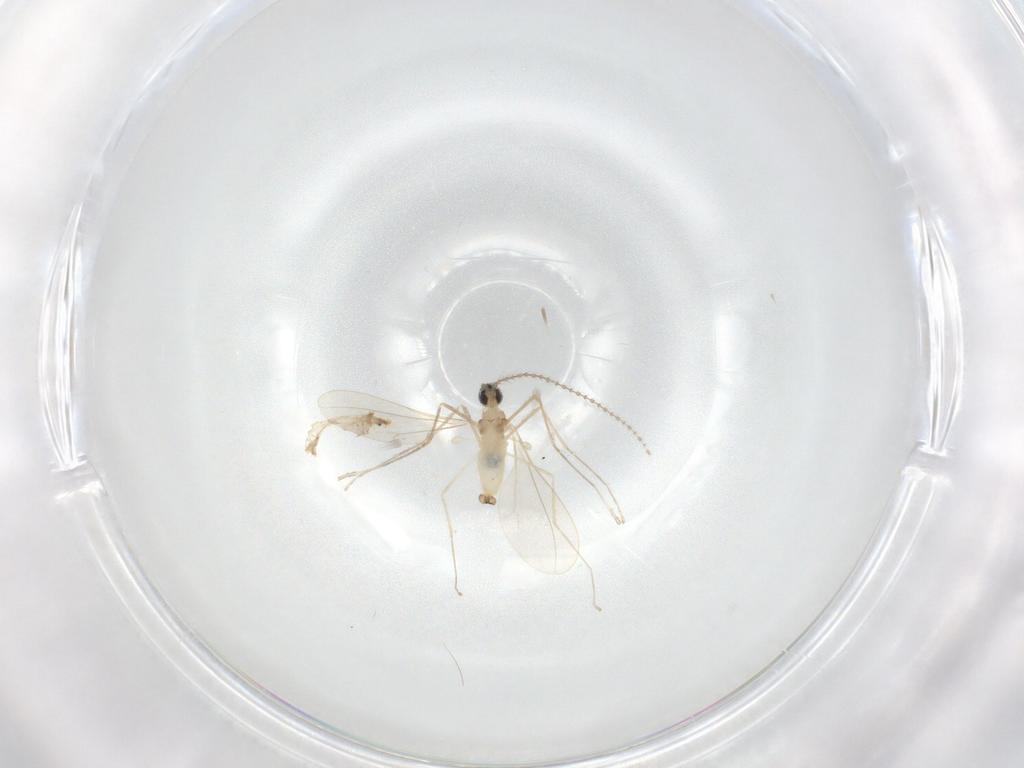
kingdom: Animalia
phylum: Arthropoda
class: Insecta
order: Diptera
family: Cecidomyiidae
